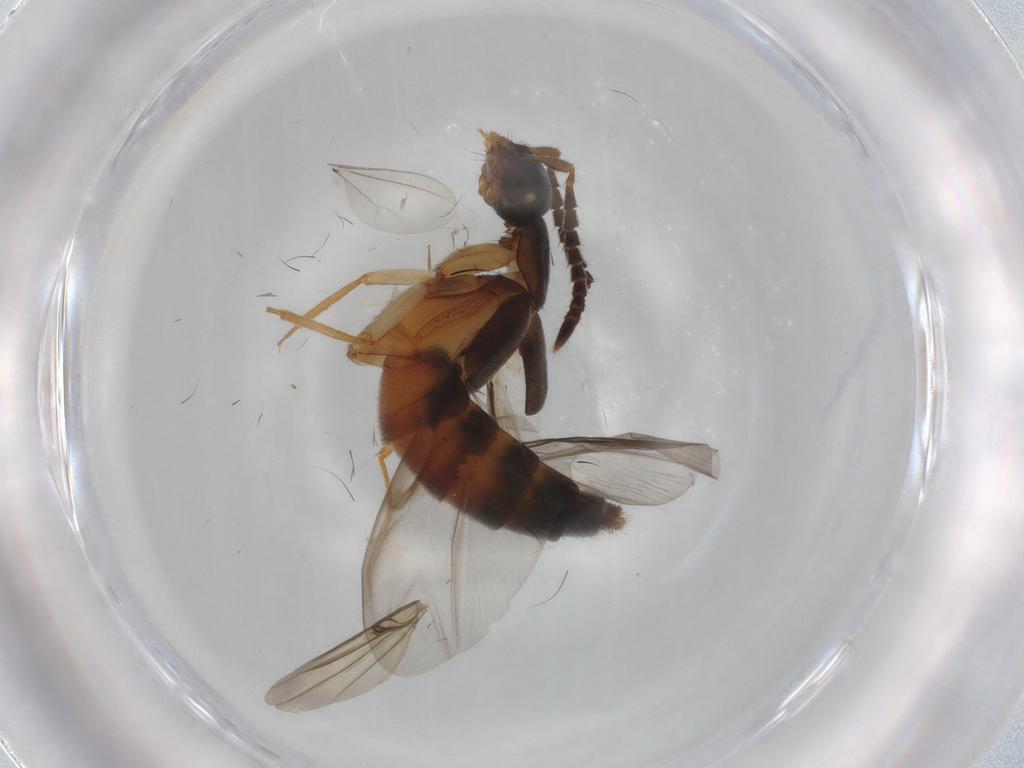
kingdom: Animalia
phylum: Arthropoda
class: Insecta
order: Coleoptera
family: Staphylinidae
